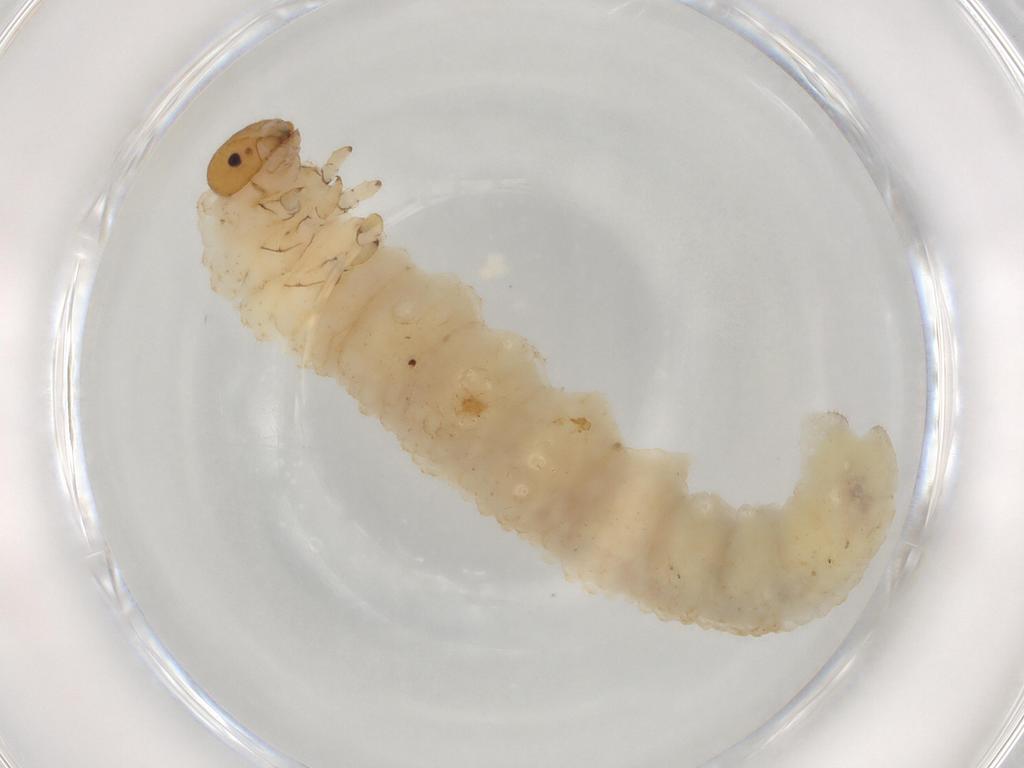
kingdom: Animalia
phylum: Arthropoda
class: Insecta
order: Hymenoptera
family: Tenthredinidae
